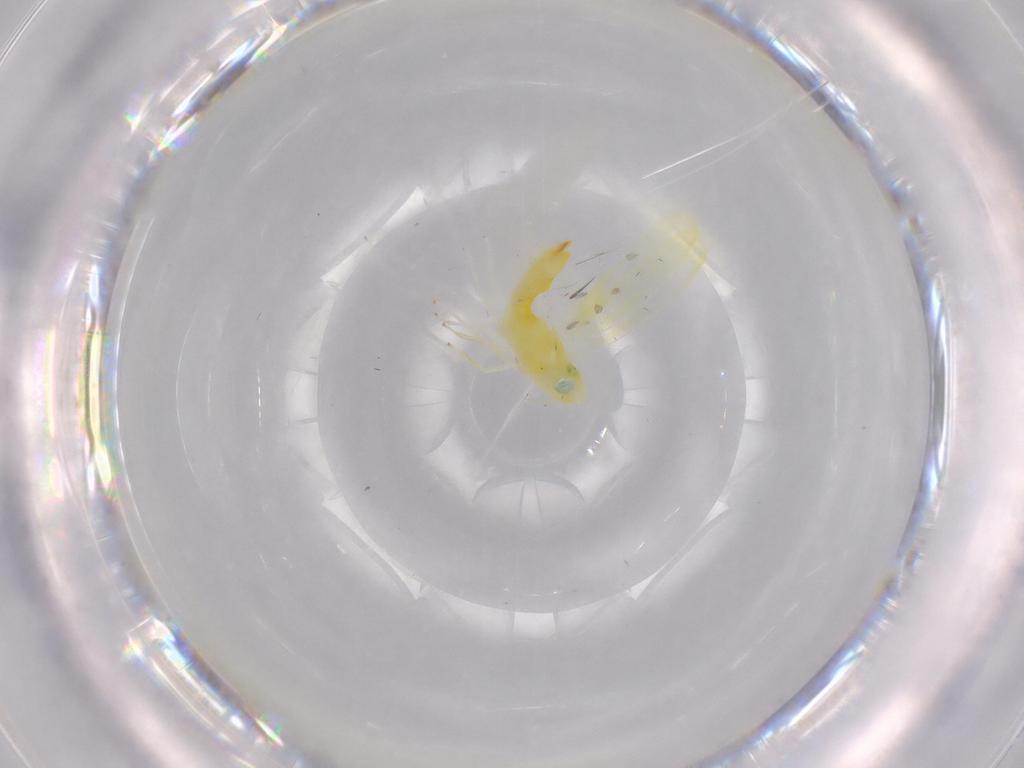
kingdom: Animalia
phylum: Arthropoda
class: Insecta
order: Hemiptera
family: Cicadellidae
